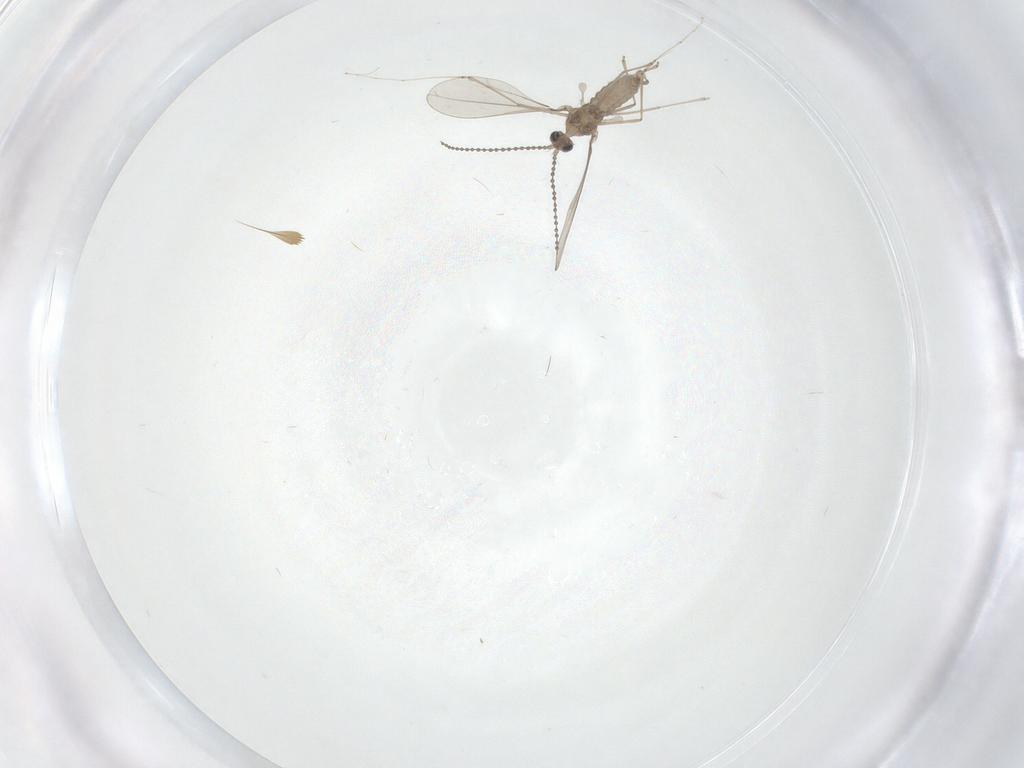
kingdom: Animalia
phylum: Arthropoda
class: Insecta
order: Diptera
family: Cecidomyiidae
